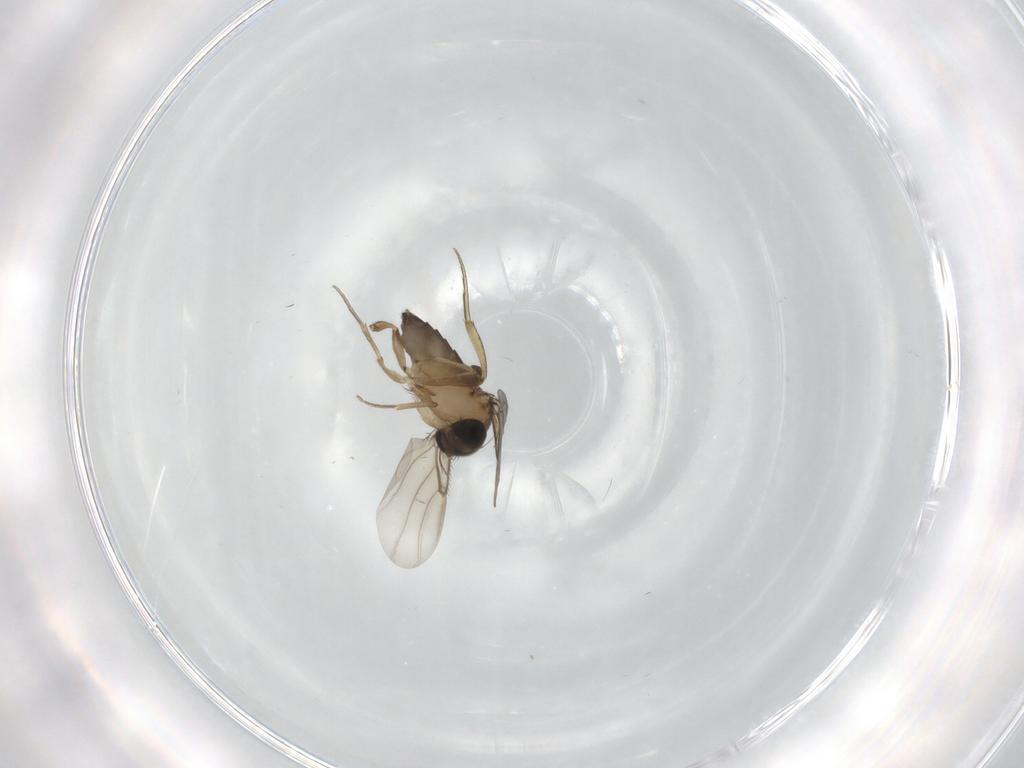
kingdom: Animalia
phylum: Arthropoda
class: Insecta
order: Diptera
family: Phoridae
